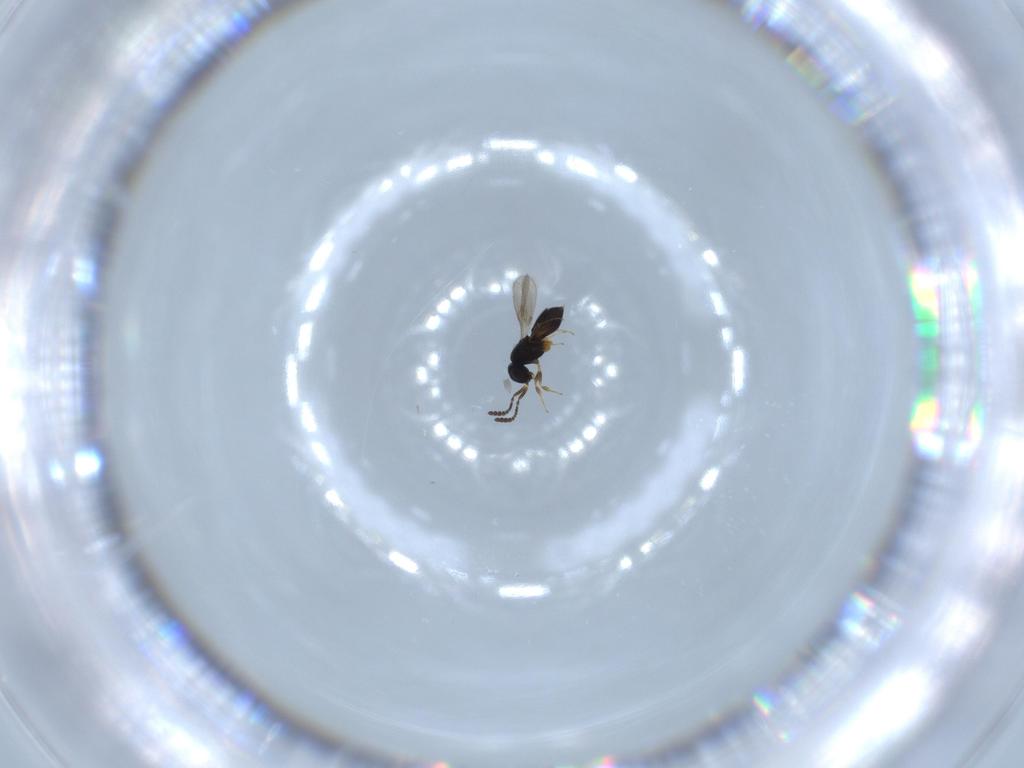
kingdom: Animalia
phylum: Arthropoda
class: Insecta
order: Hymenoptera
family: Scelionidae
